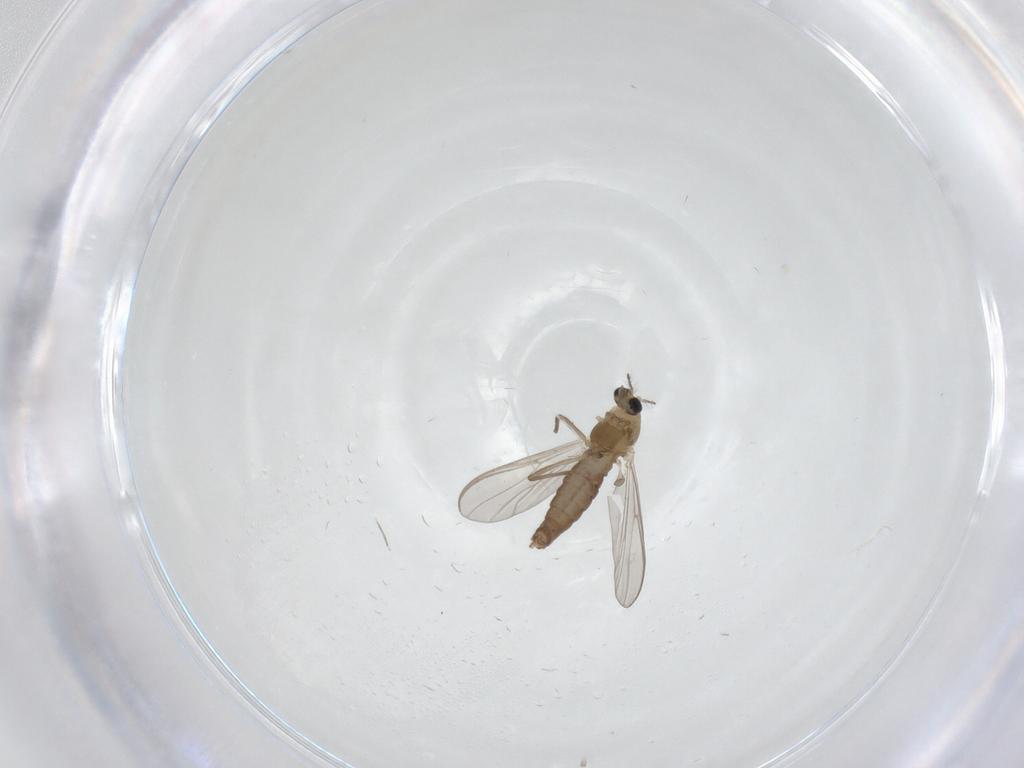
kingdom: Animalia
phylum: Arthropoda
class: Insecta
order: Diptera
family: Chironomidae
